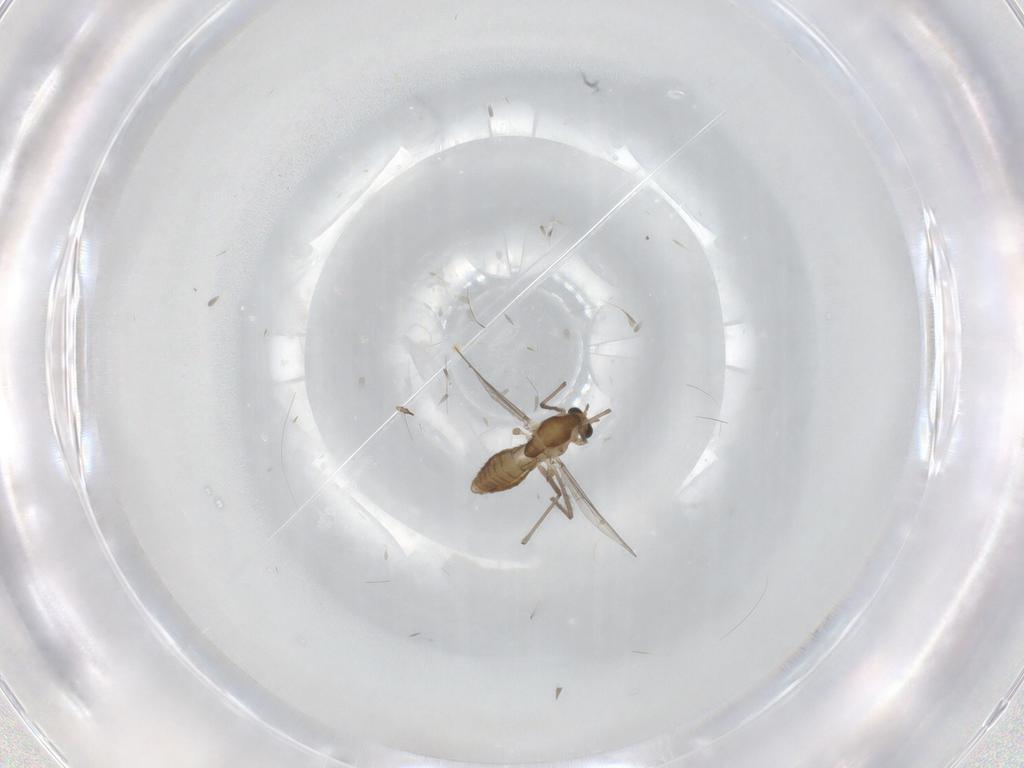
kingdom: Animalia
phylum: Arthropoda
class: Insecta
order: Diptera
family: Chironomidae
